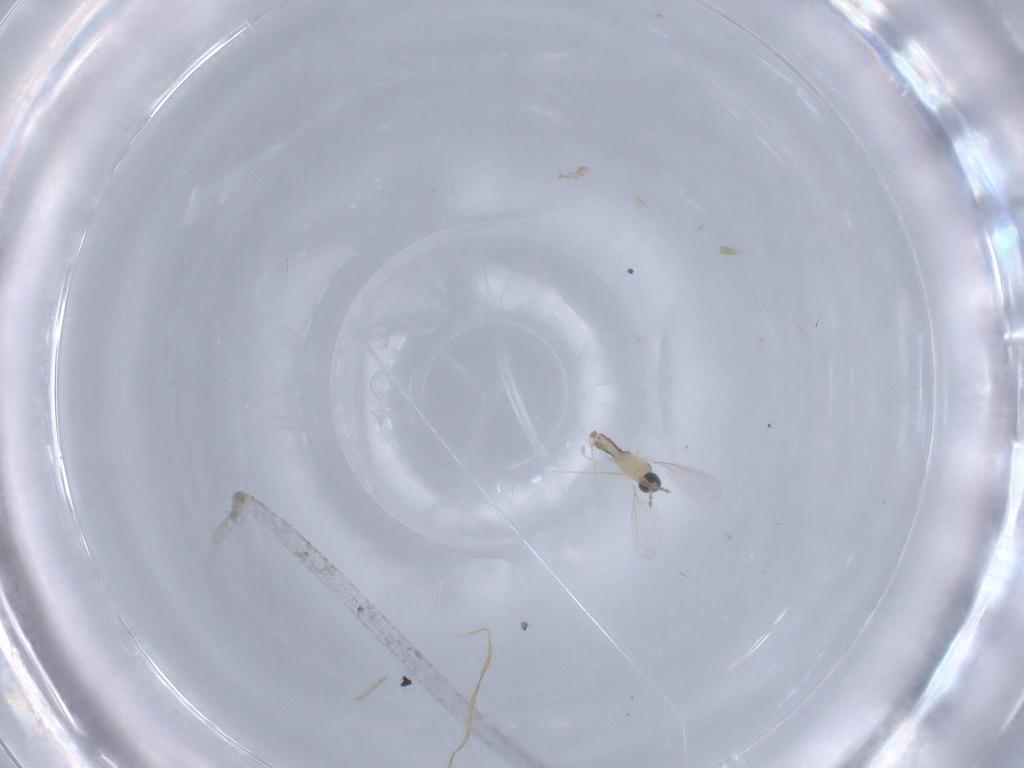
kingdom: Animalia
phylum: Arthropoda
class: Insecta
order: Diptera
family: Cecidomyiidae
